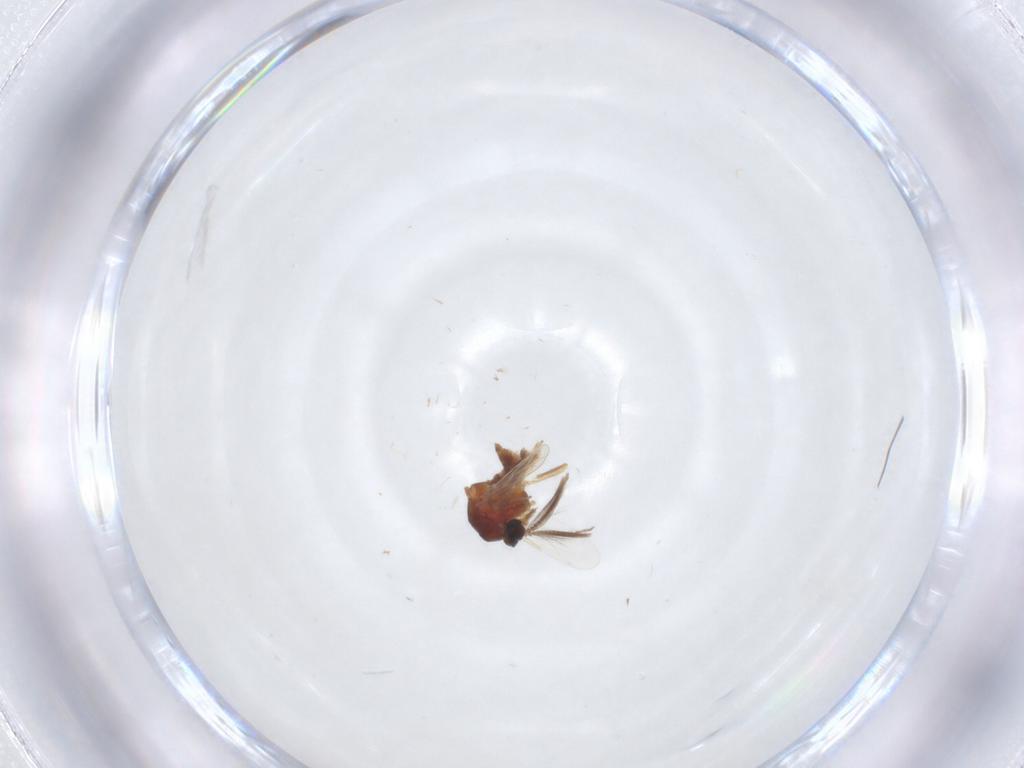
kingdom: Animalia
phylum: Arthropoda
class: Insecta
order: Diptera
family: Ceratopogonidae
